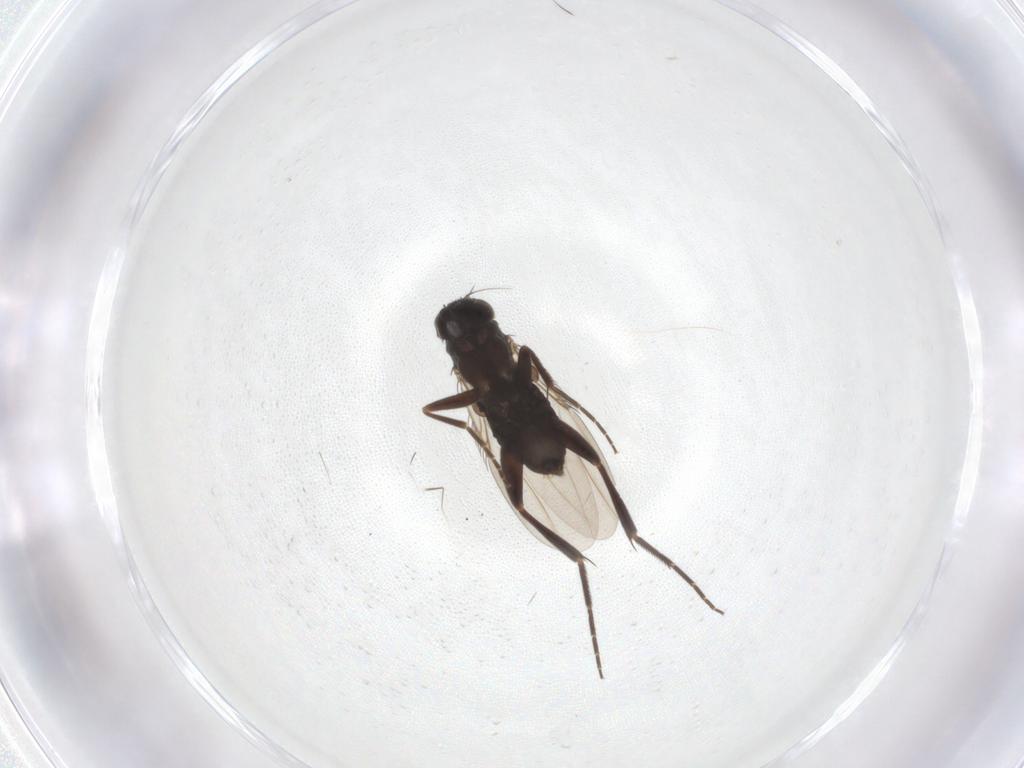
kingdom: Animalia
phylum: Arthropoda
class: Insecta
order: Diptera
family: Phoridae
